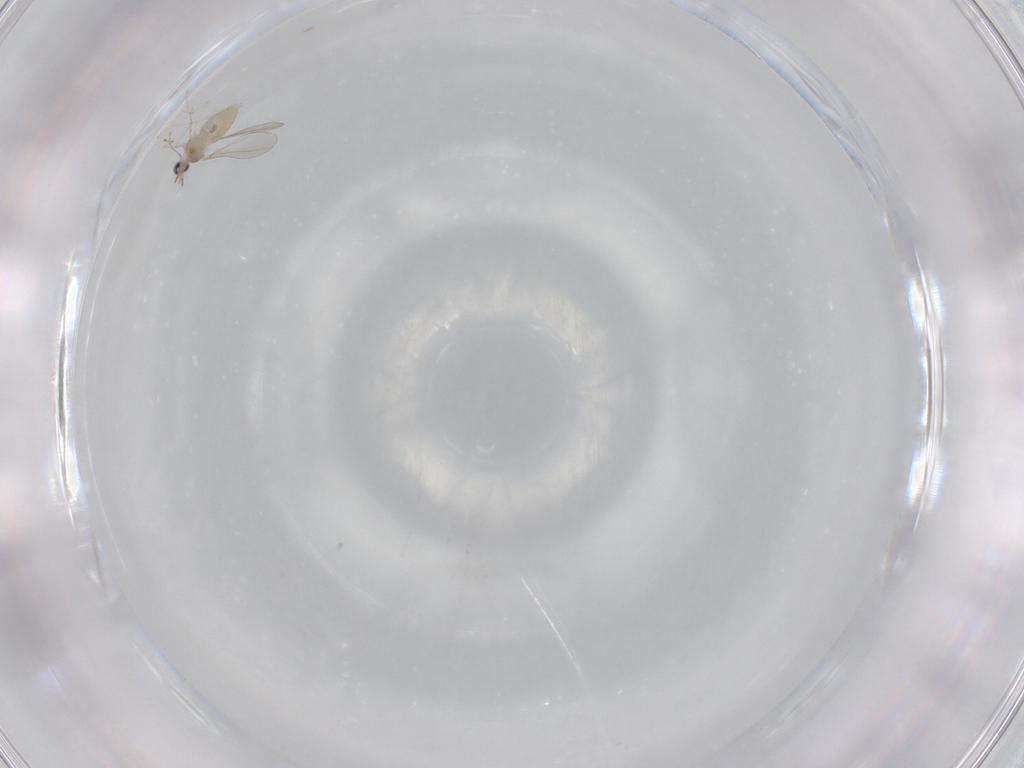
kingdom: Animalia
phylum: Arthropoda
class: Insecta
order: Diptera
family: Cecidomyiidae
